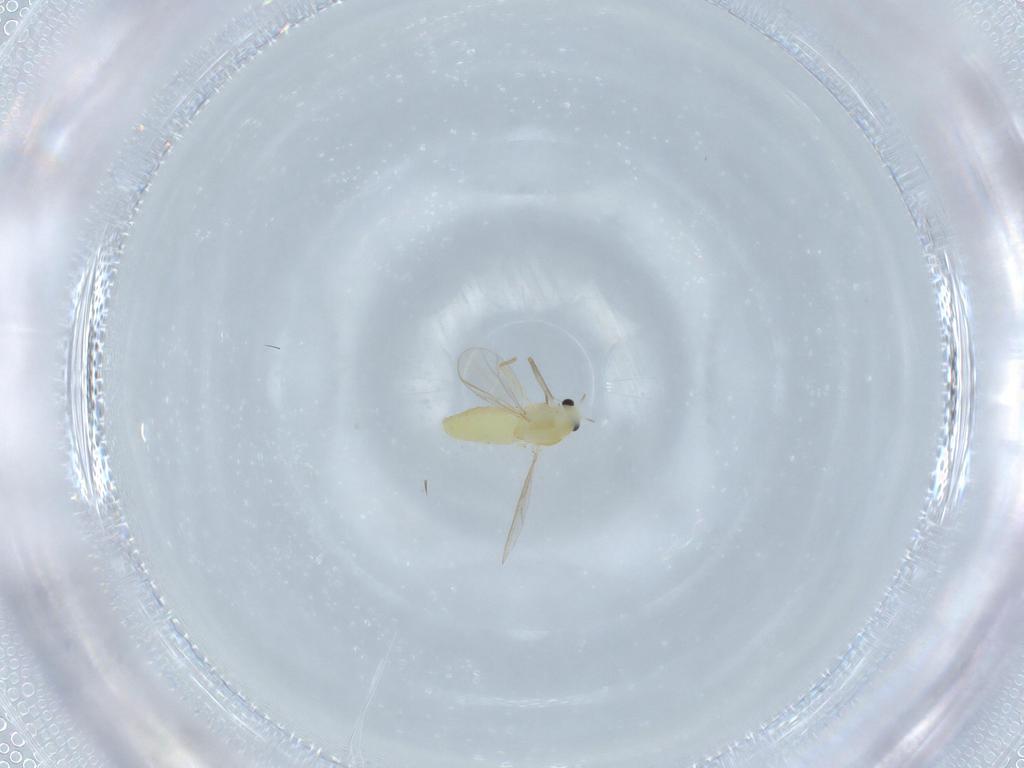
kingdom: Animalia
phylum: Arthropoda
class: Insecta
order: Diptera
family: Chironomidae
